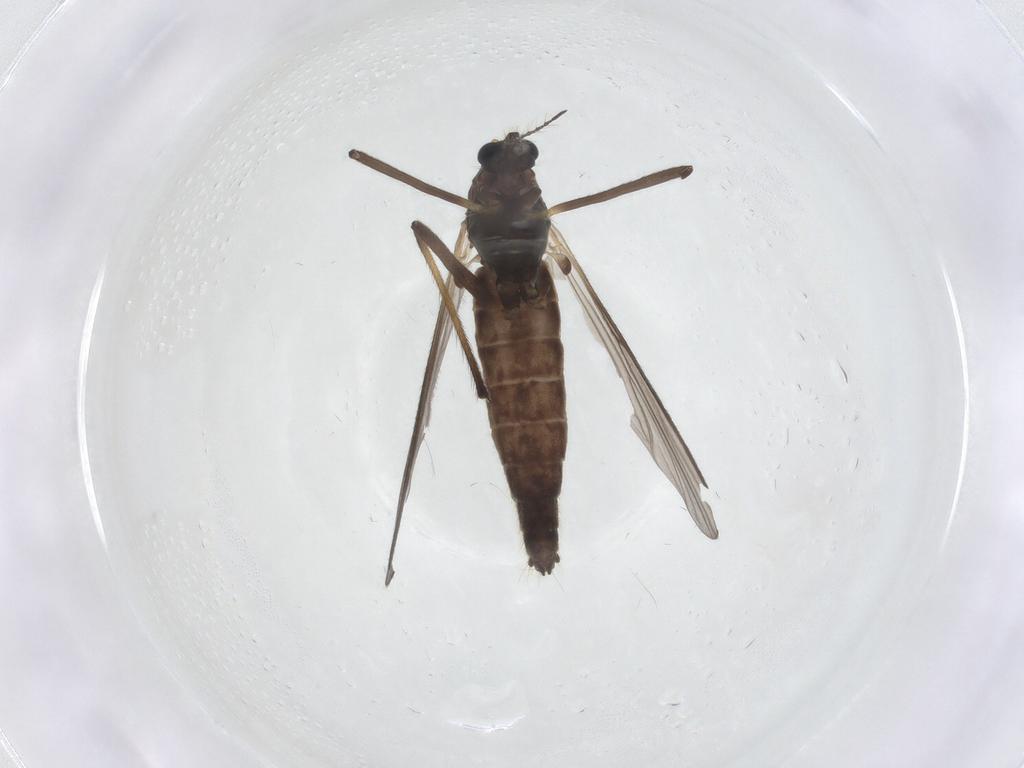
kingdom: Animalia
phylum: Arthropoda
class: Insecta
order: Diptera
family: Chironomidae
